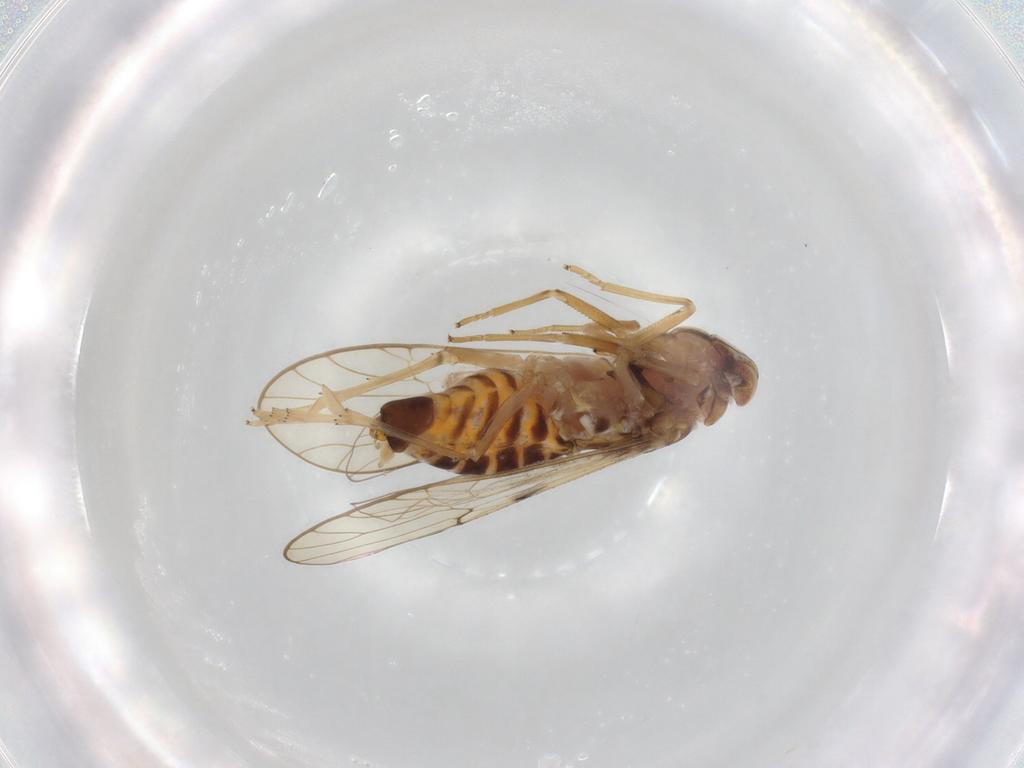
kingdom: Animalia
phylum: Arthropoda
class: Insecta
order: Hemiptera
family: Delphacidae
